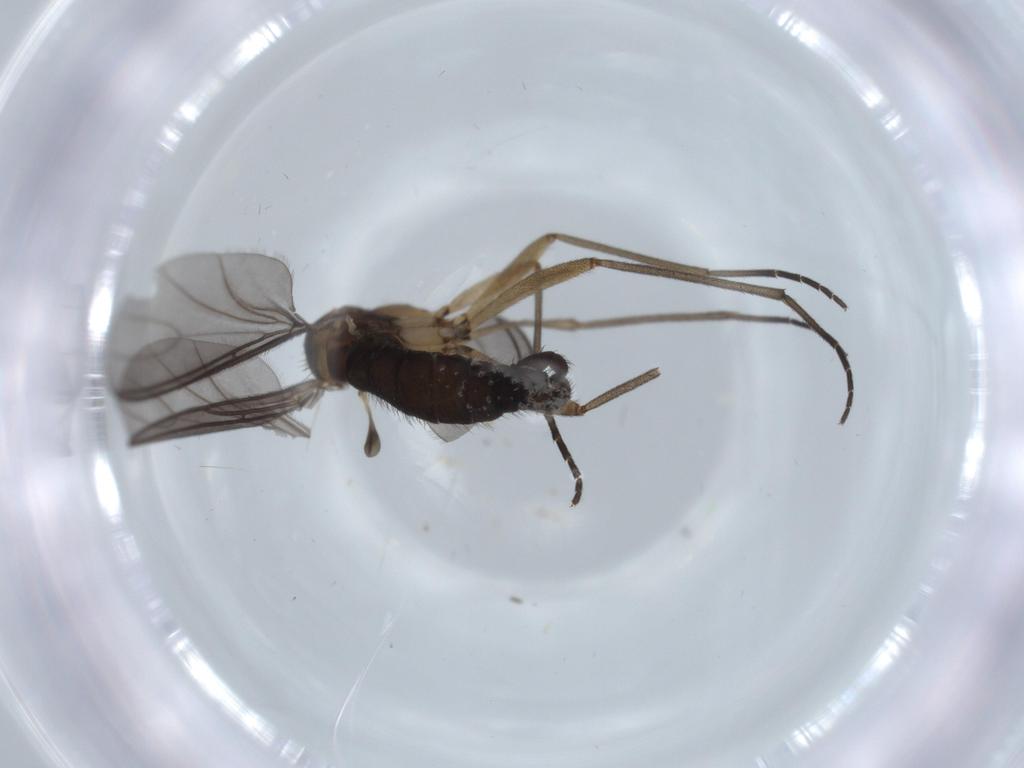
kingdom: Animalia
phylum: Arthropoda
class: Insecta
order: Diptera
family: Sciaridae
